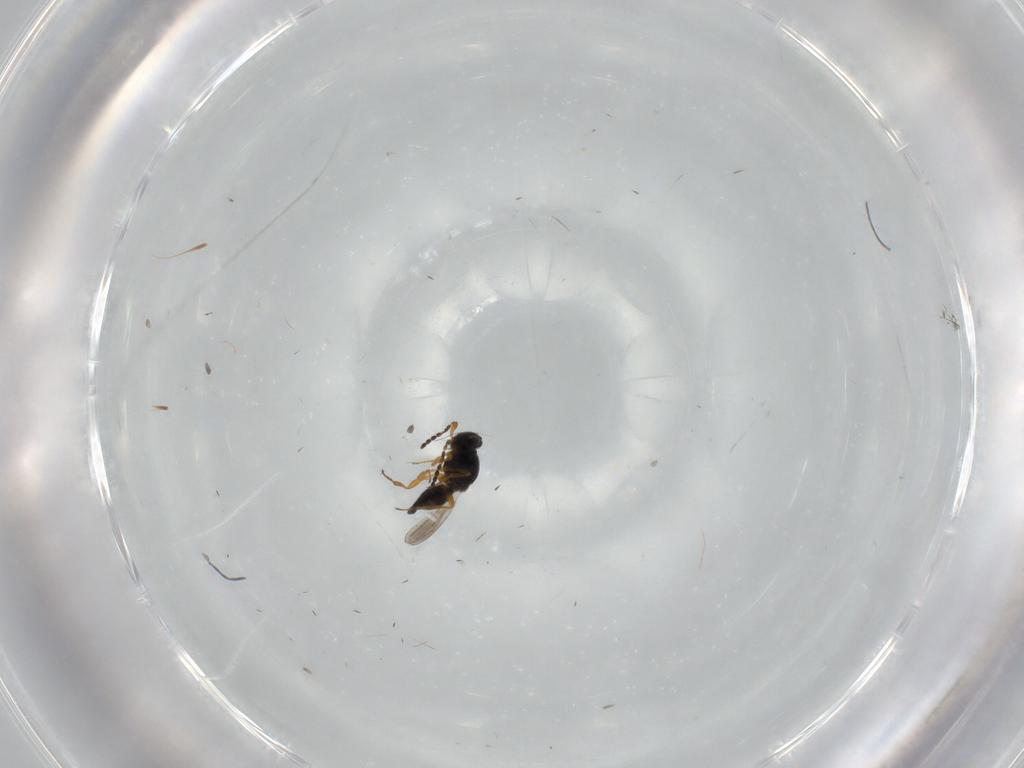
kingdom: Animalia
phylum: Arthropoda
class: Insecta
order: Hymenoptera
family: Platygastridae
